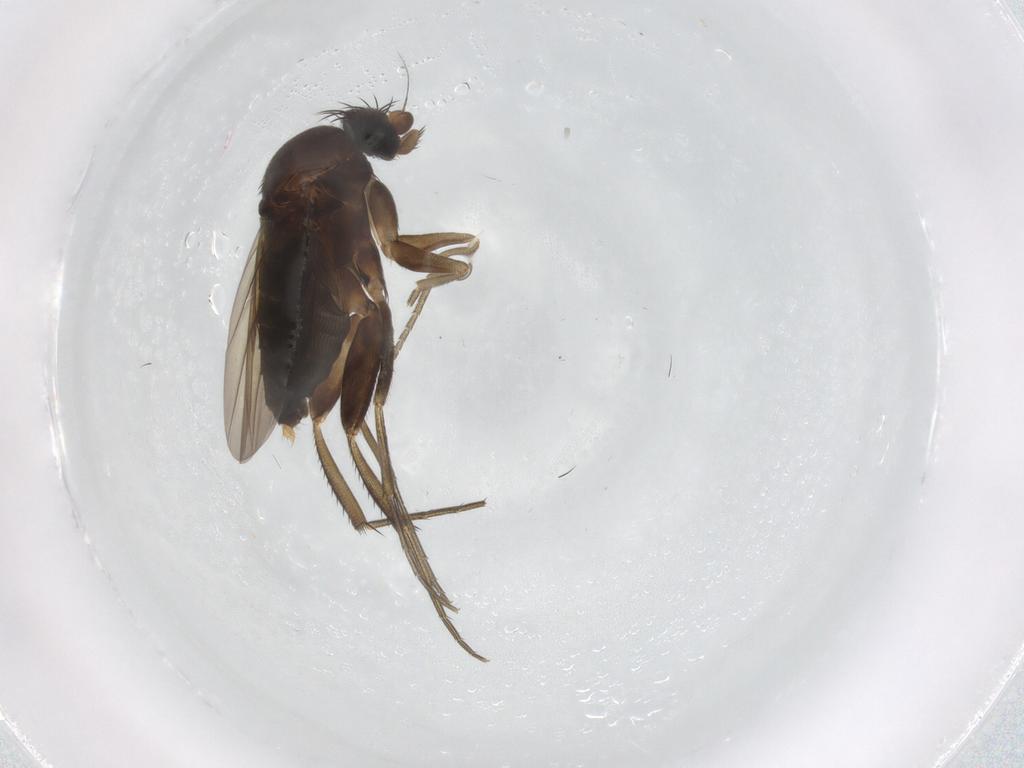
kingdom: Animalia
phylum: Arthropoda
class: Insecta
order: Diptera
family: Phoridae
